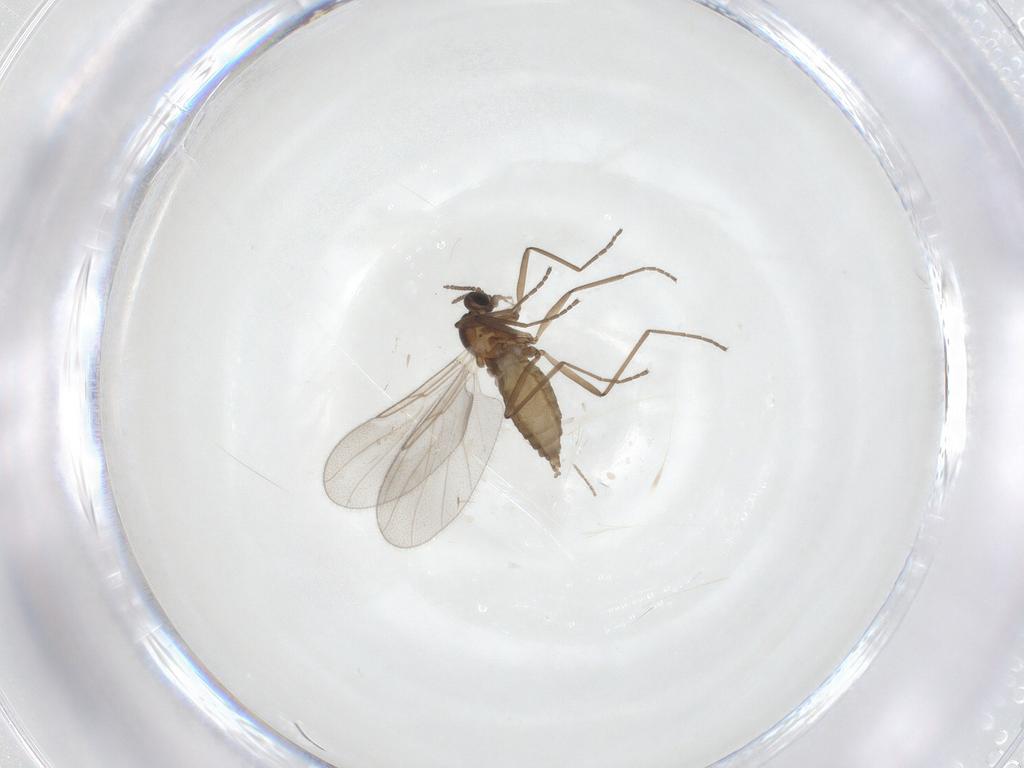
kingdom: Animalia
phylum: Arthropoda
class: Insecta
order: Diptera
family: Cecidomyiidae
